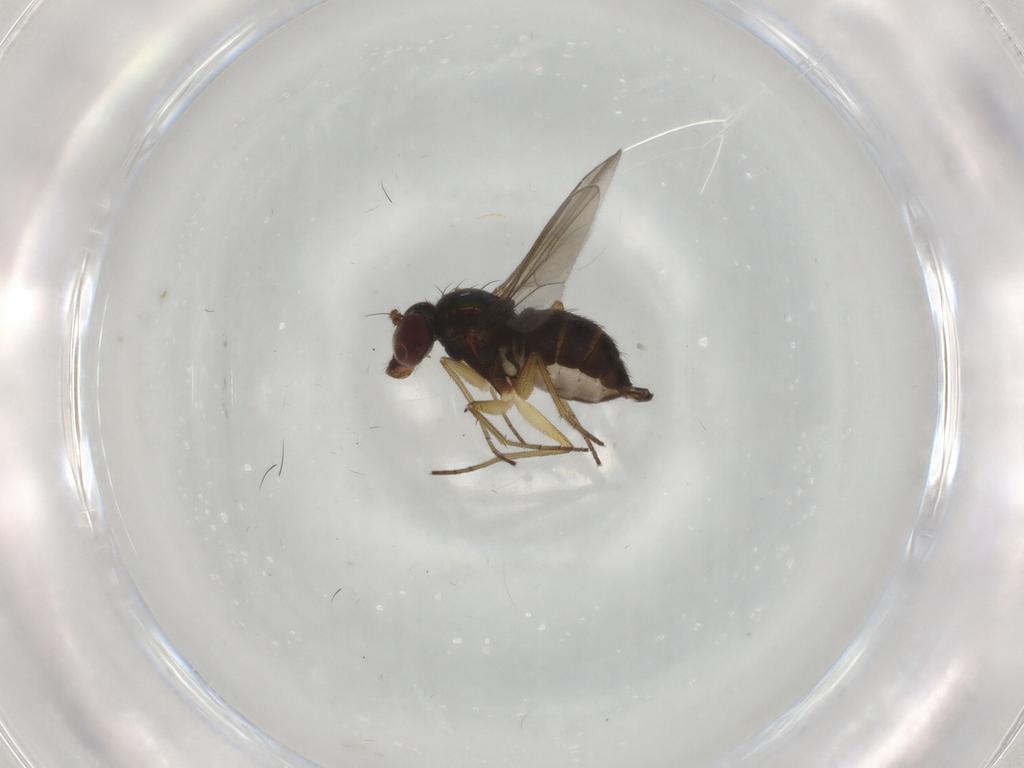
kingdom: Animalia
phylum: Arthropoda
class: Insecta
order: Diptera
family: Dolichopodidae
